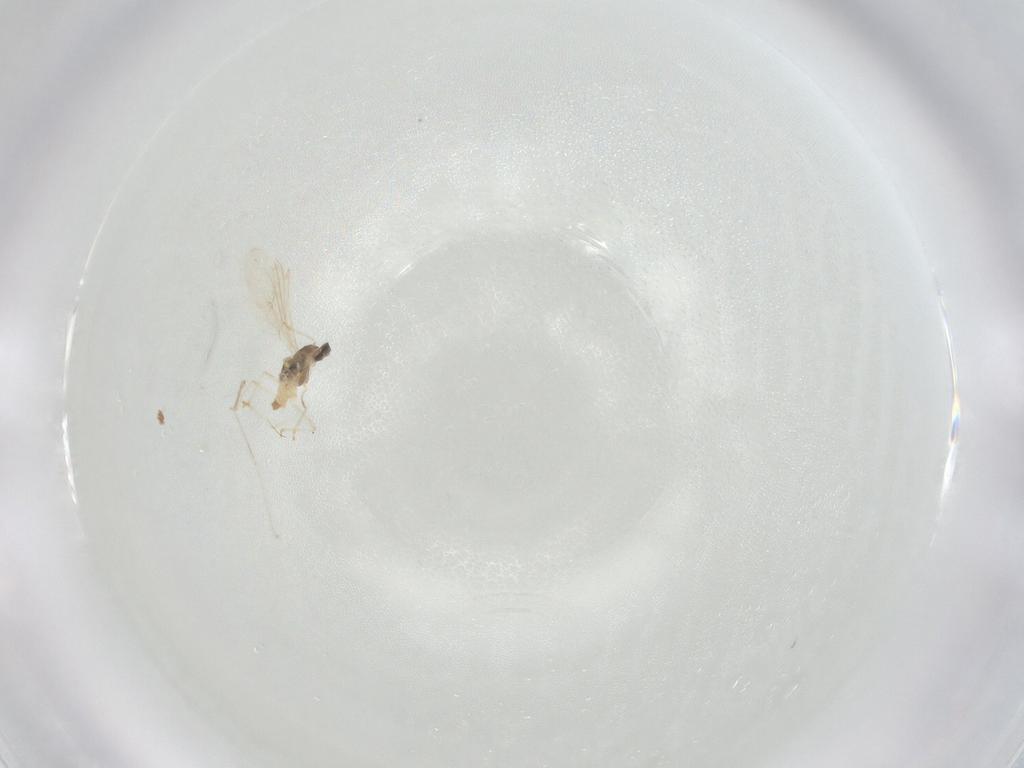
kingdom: Animalia
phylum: Arthropoda
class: Insecta
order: Diptera
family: Cecidomyiidae
